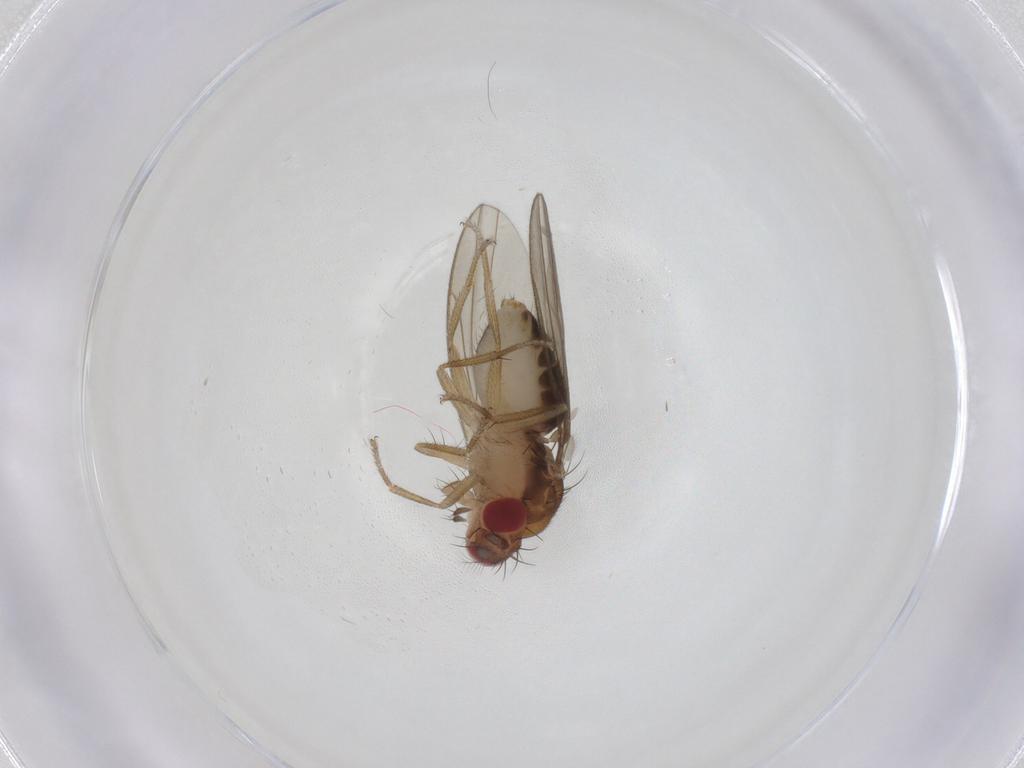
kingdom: Animalia
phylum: Arthropoda
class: Insecta
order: Diptera
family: Drosophilidae
